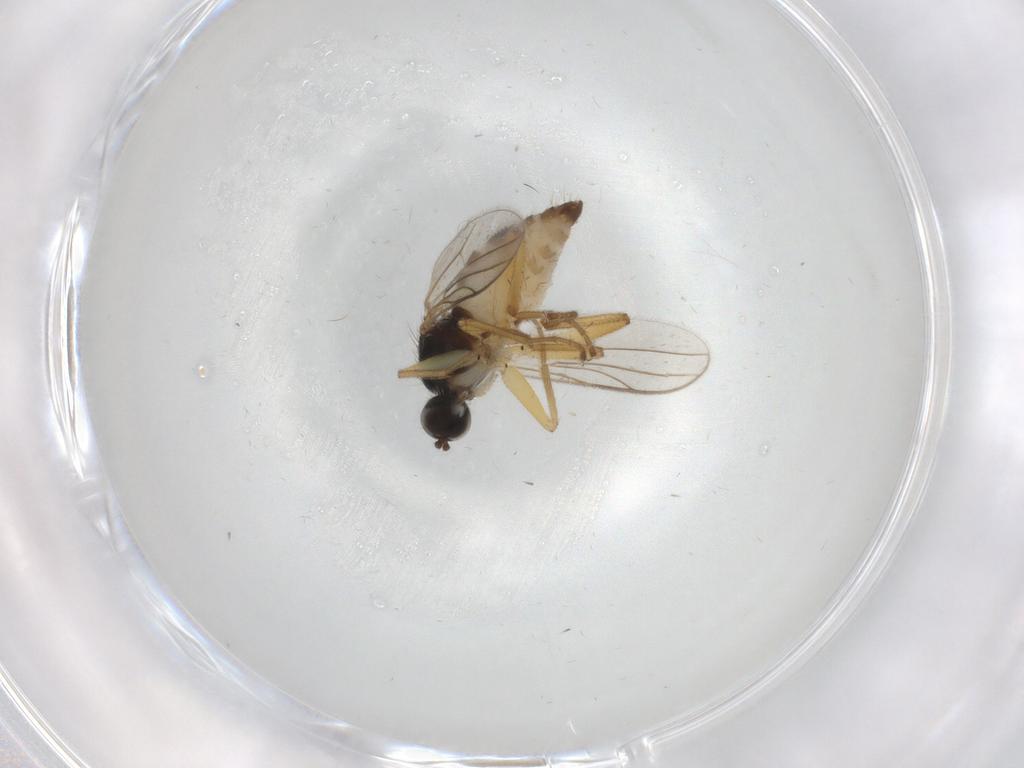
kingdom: Animalia
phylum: Arthropoda
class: Insecta
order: Diptera
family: Hybotidae
